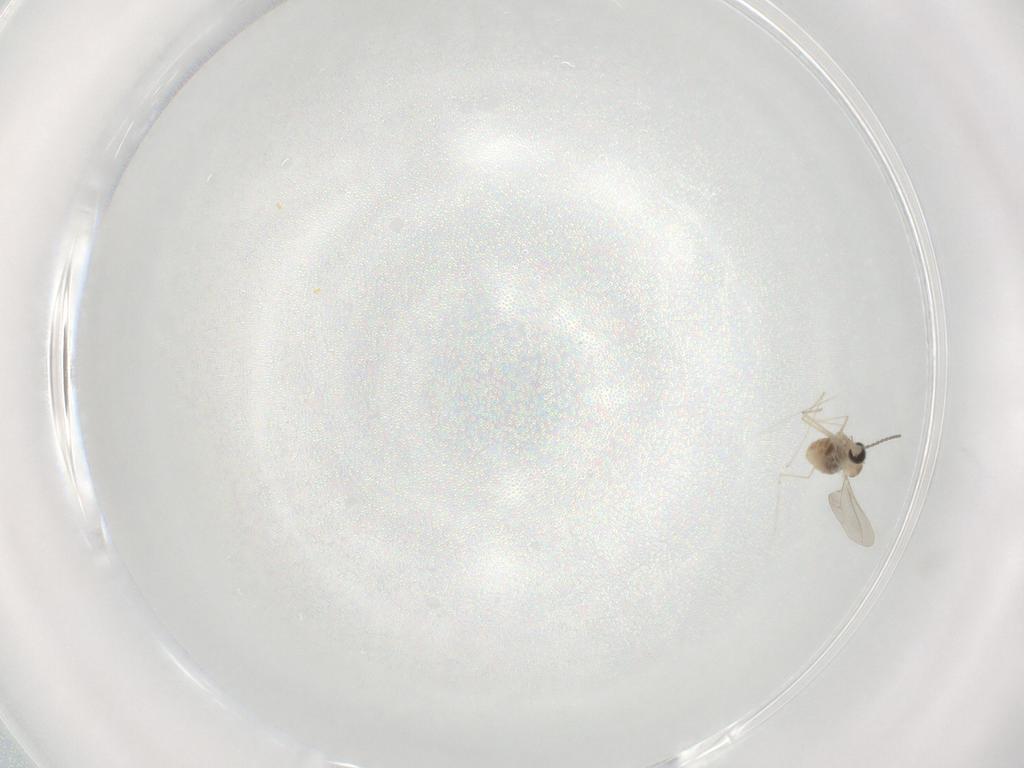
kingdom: Animalia
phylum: Arthropoda
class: Insecta
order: Diptera
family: Cecidomyiidae
